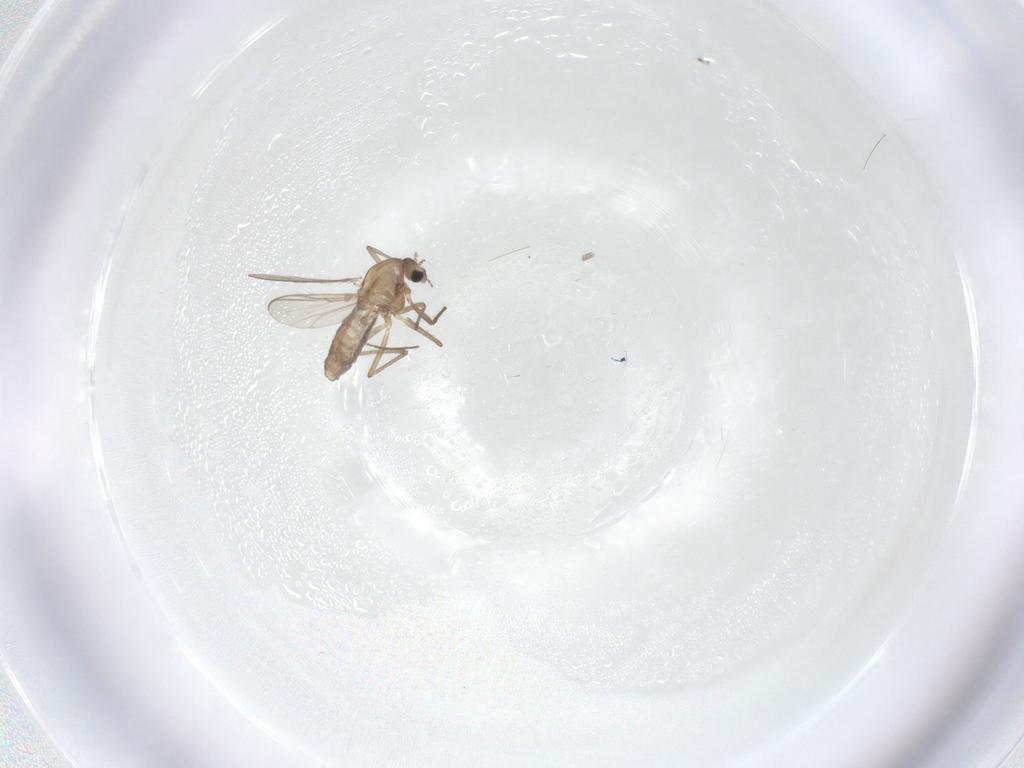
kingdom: Animalia
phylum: Arthropoda
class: Insecta
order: Diptera
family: Chironomidae
